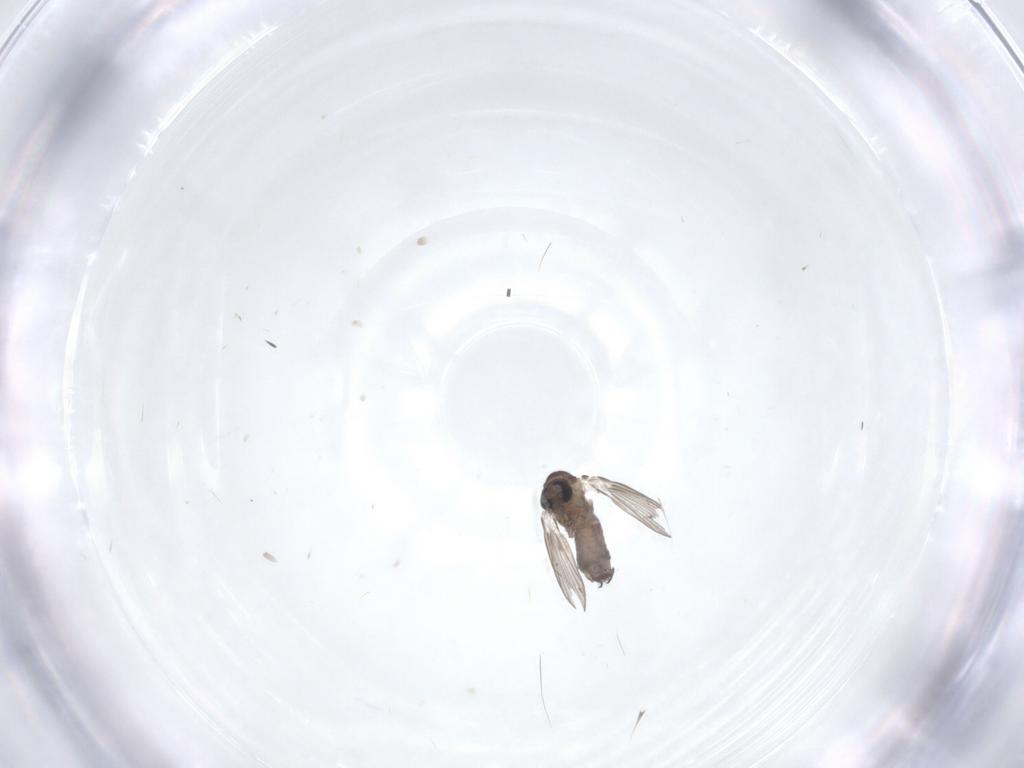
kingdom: Animalia
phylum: Arthropoda
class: Insecta
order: Diptera
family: Psychodidae
